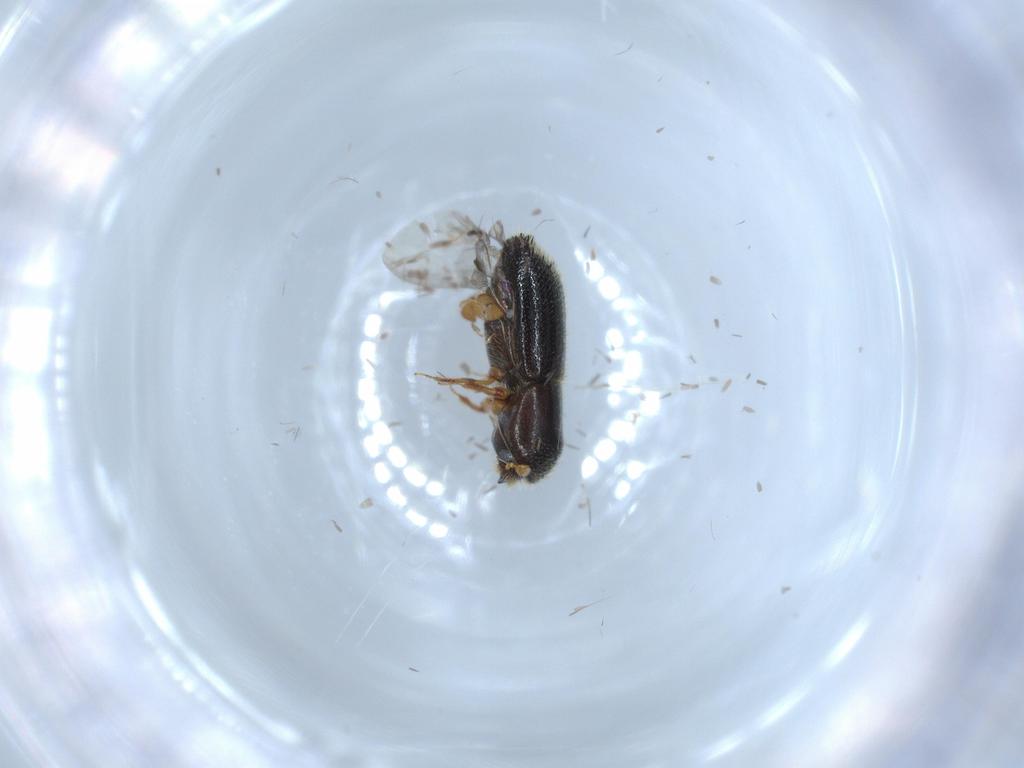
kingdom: Animalia
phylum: Arthropoda
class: Insecta
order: Coleoptera
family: Curculionidae
